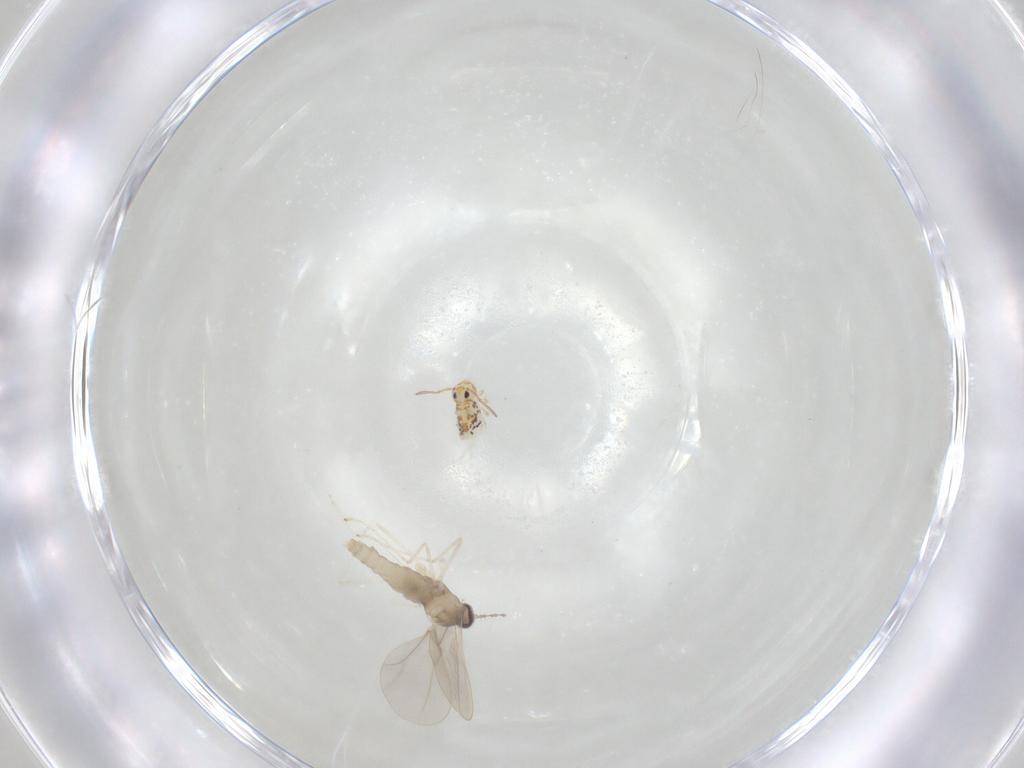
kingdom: Animalia
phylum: Arthropoda
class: Insecta
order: Diptera
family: Cecidomyiidae
